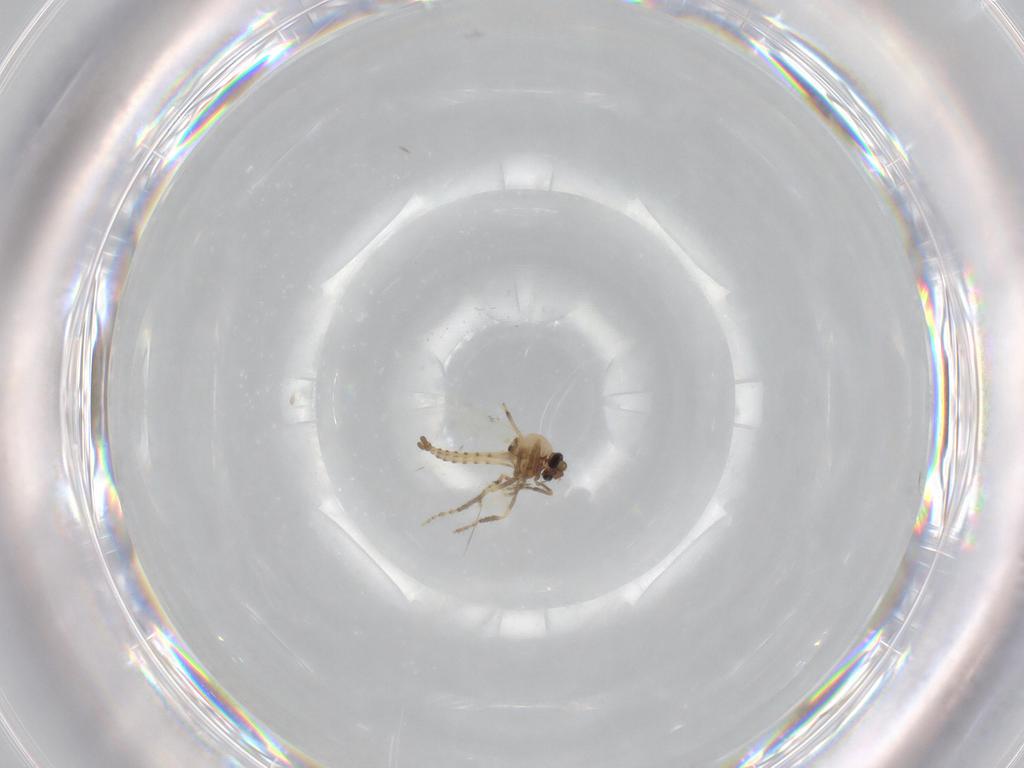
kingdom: Animalia
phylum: Arthropoda
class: Insecta
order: Diptera
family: Ceratopogonidae
